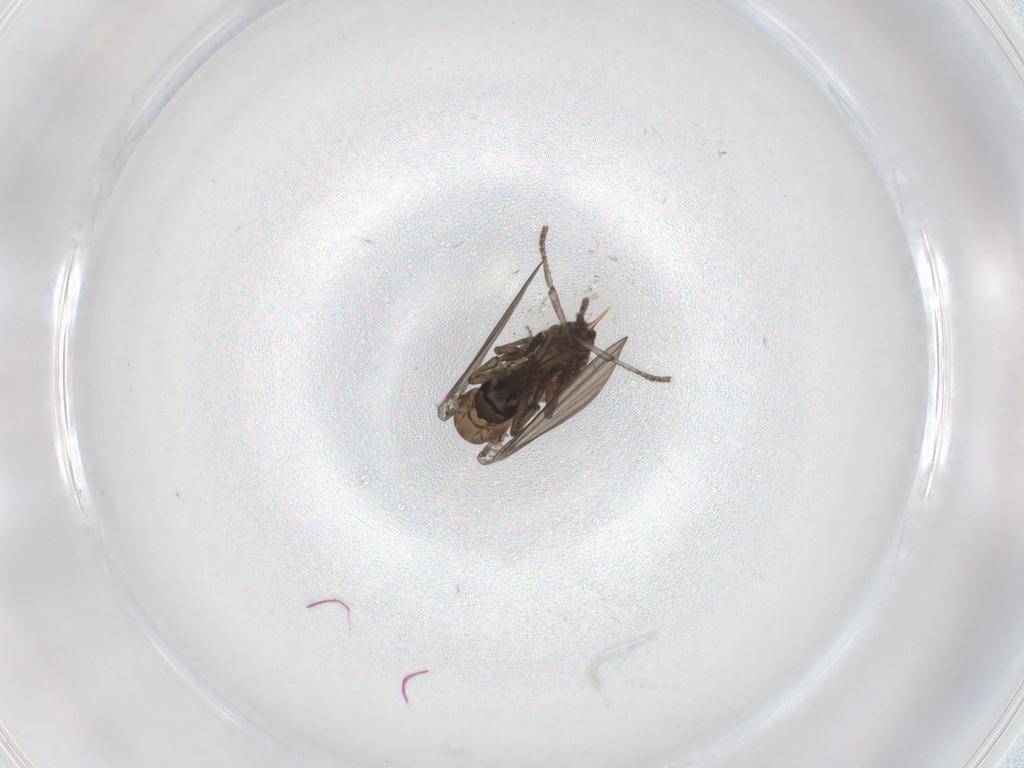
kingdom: Animalia
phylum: Arthropoda
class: Insecta
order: Diptera
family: Psychodidae
